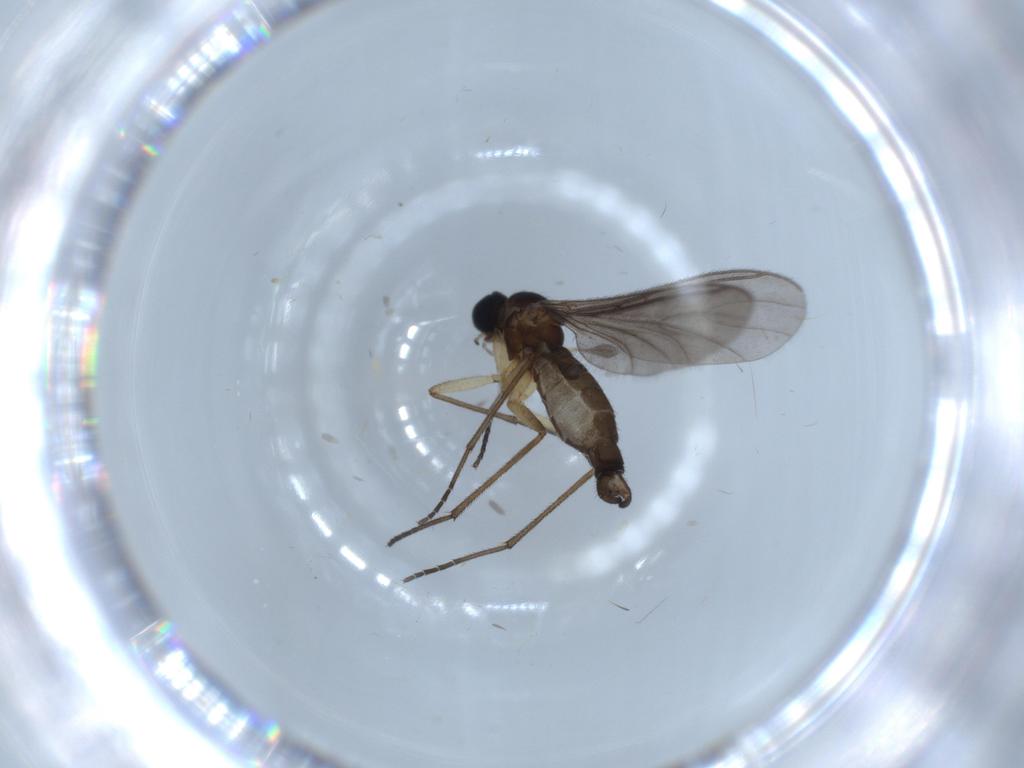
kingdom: Animalia
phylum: Arthropoda
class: Insecta
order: Diptera
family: Sciaridae
